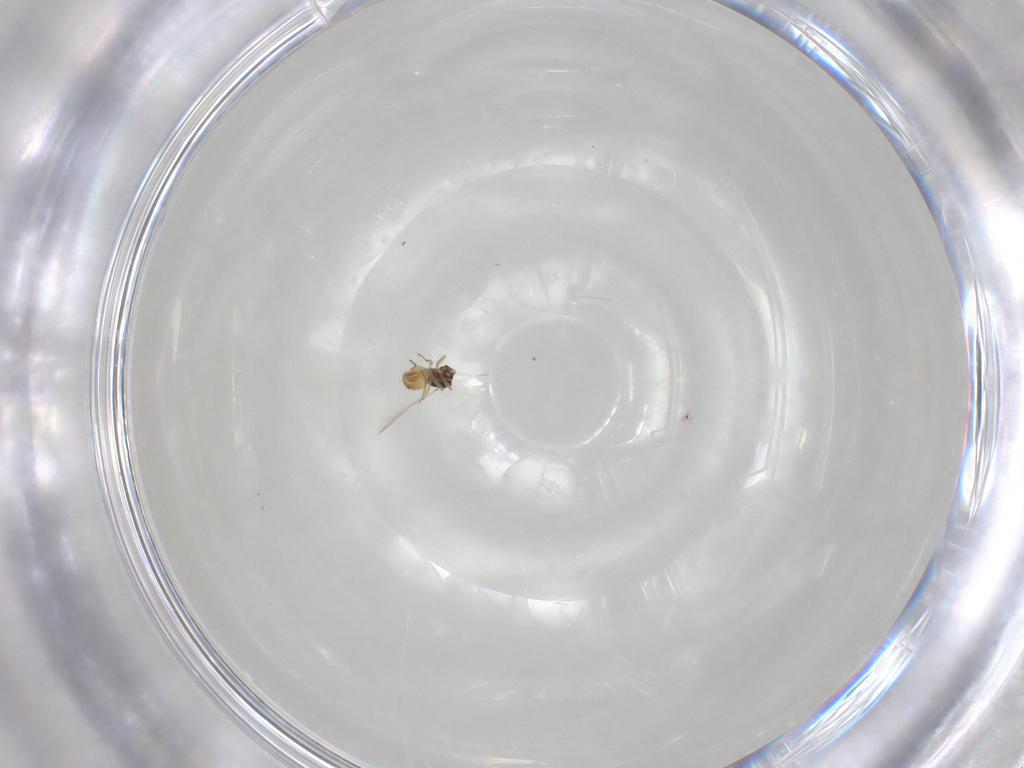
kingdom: Animalia
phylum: Arthropoda
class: Insecta
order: Hymenoptera
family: Mymaridae
